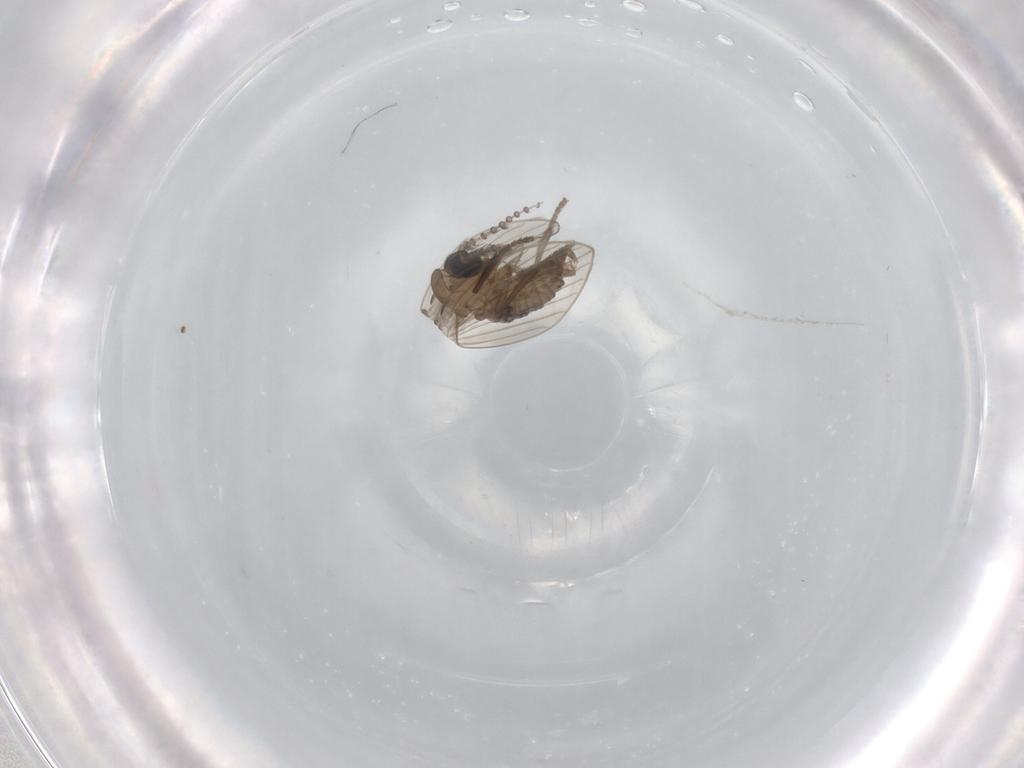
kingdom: Animalia
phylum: Arthropoda
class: Insecta
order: Diptera
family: Psychodidae
